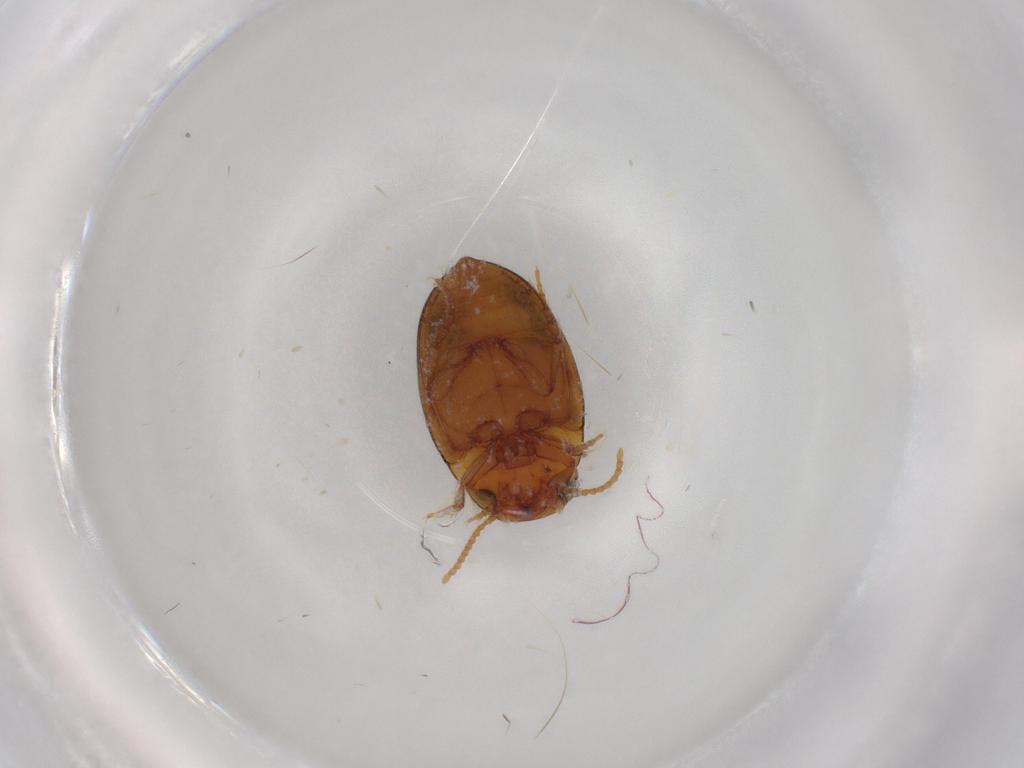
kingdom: Animalia
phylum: Arthropoda
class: Insecta
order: Coleoptera
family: Dytiscidae
